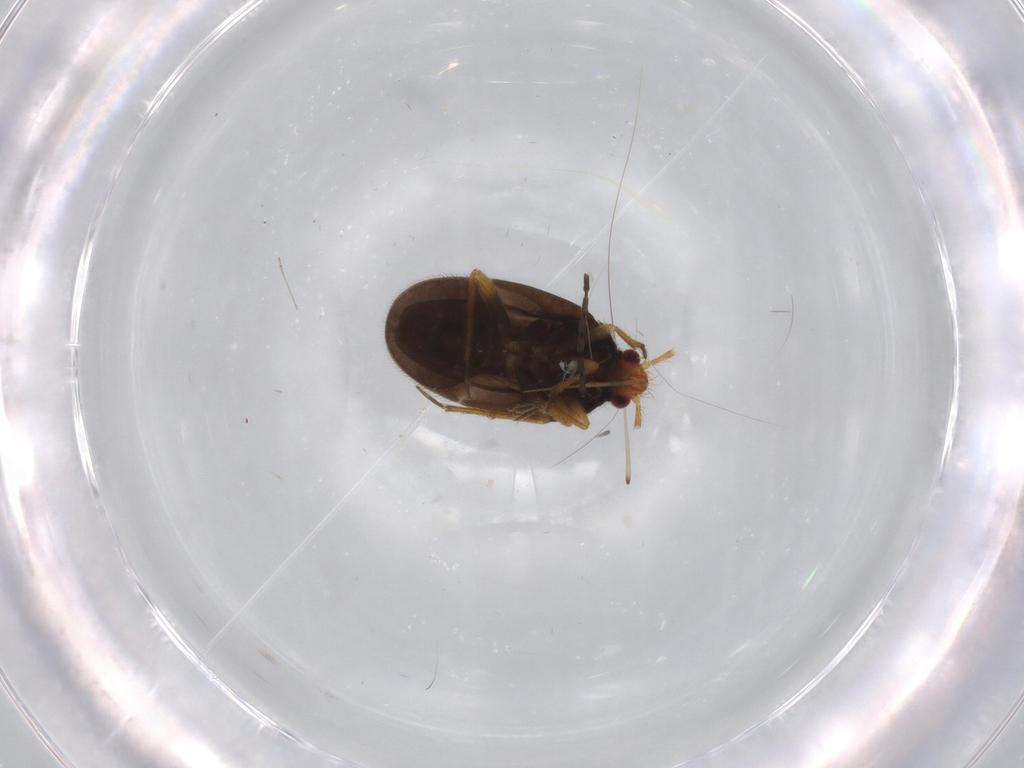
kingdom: Animalia
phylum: Arthropoda
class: Insecta
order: Hemiptera
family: Ceratocombidae
